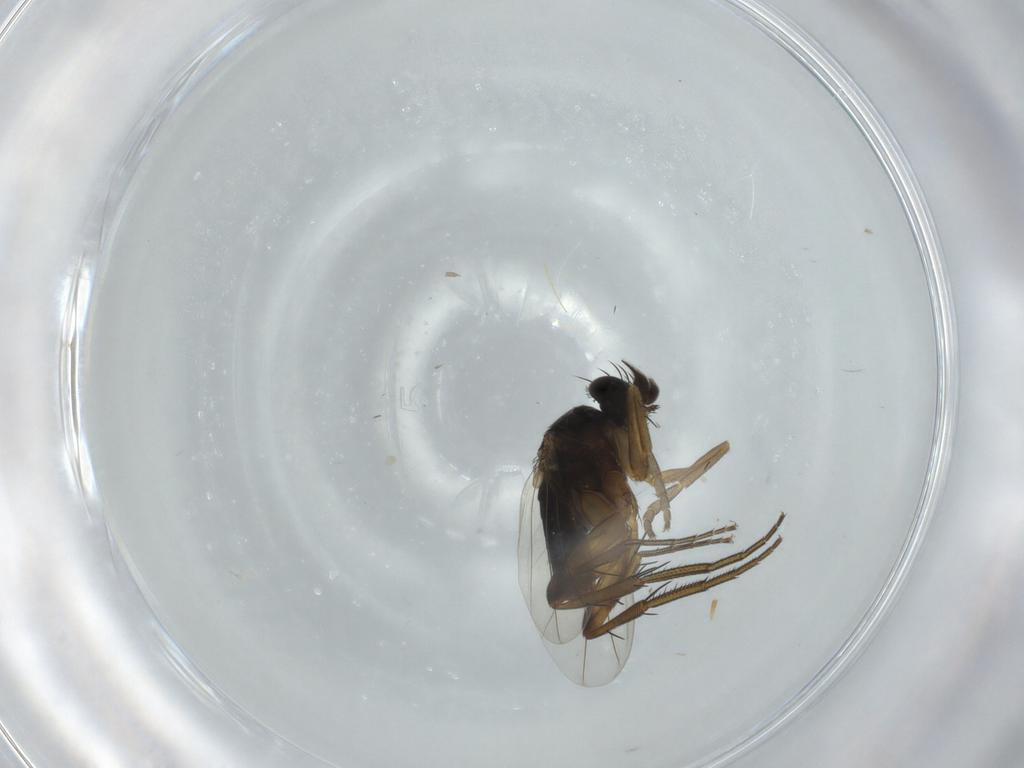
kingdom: Animalia
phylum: Arthropoda
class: Insecta
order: Diptera
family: Phoridae
